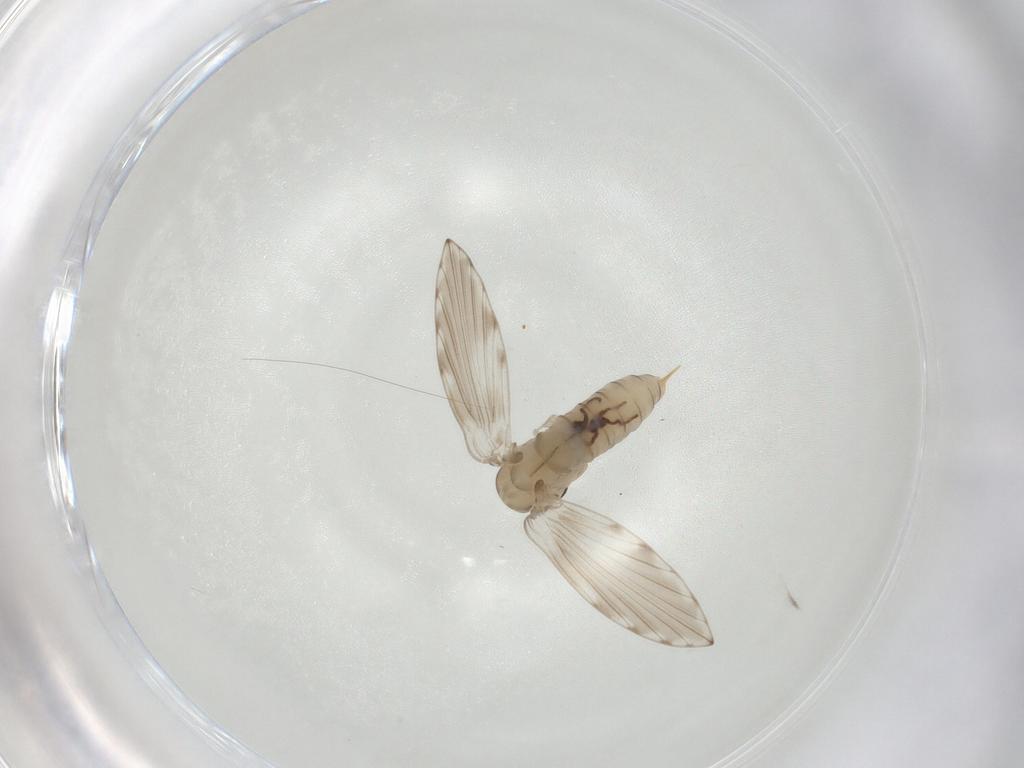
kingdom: Animalia
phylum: Arthropoda
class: Insecta
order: Diptera
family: Psychodidae
